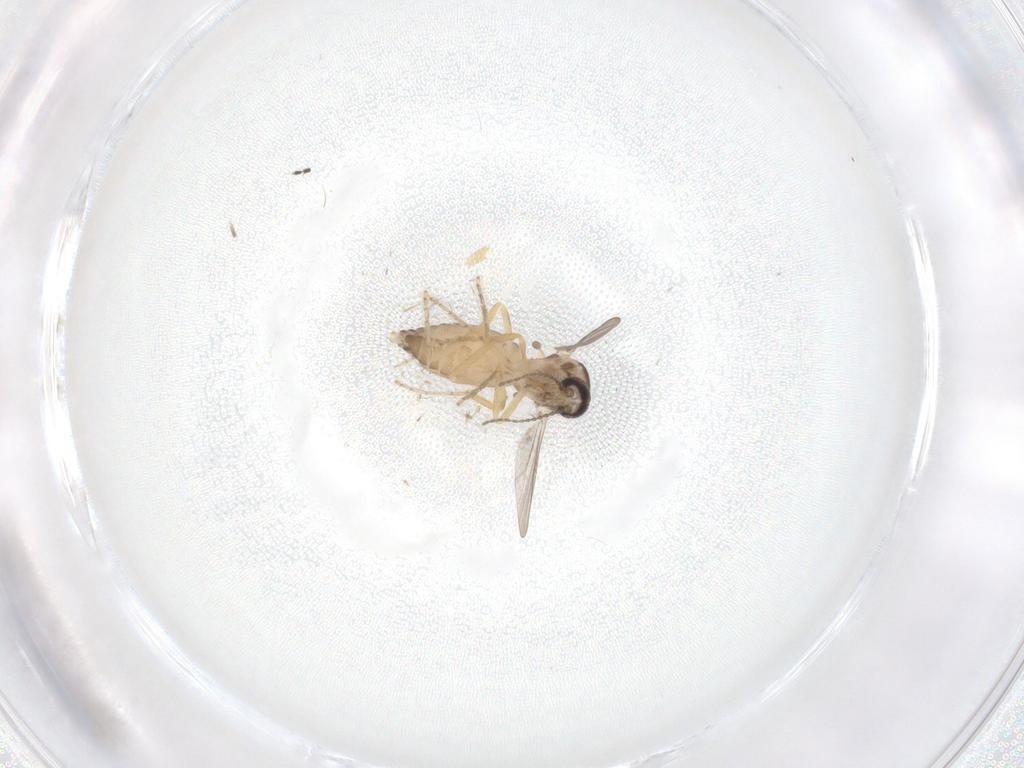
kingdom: Animalia
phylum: Arthropoda
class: Insecta
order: Diptera
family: Ceratopogonidae
